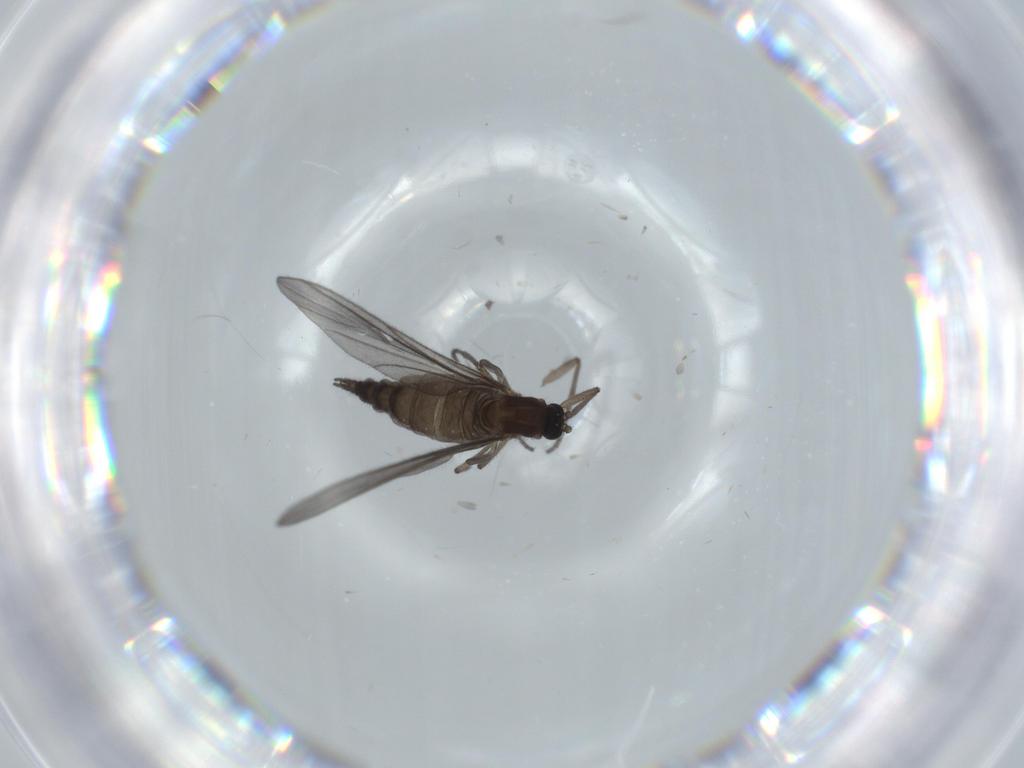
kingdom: Animalia
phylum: Arthropoda
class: Insecta
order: Diptera
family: Sciaridae
